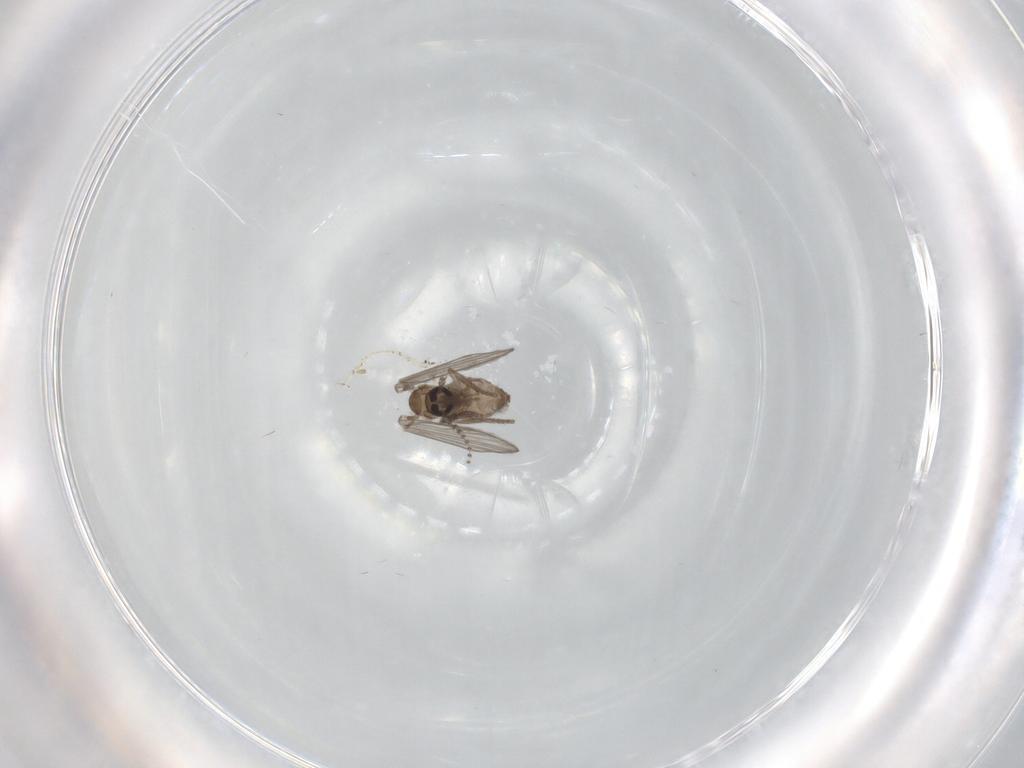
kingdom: Animalia
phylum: Arthropoda
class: Insecta
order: Diptera
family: Psychodidae
